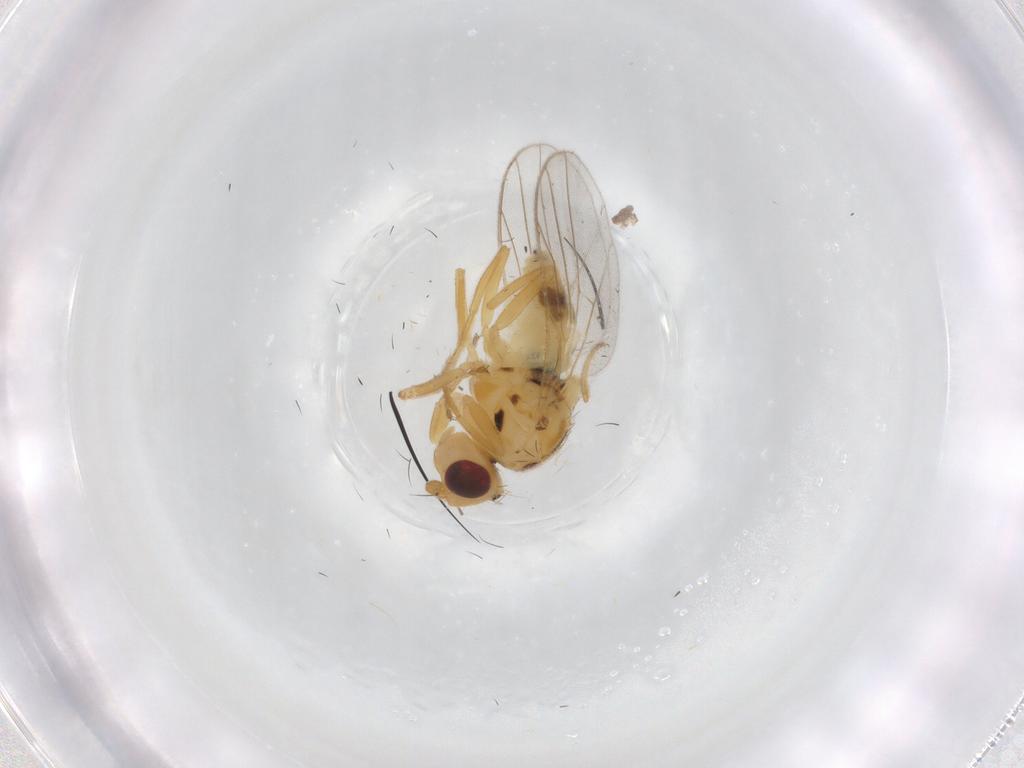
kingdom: Animalia
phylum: Arthropoda
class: Insecta
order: Diptera
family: Chloropidae
